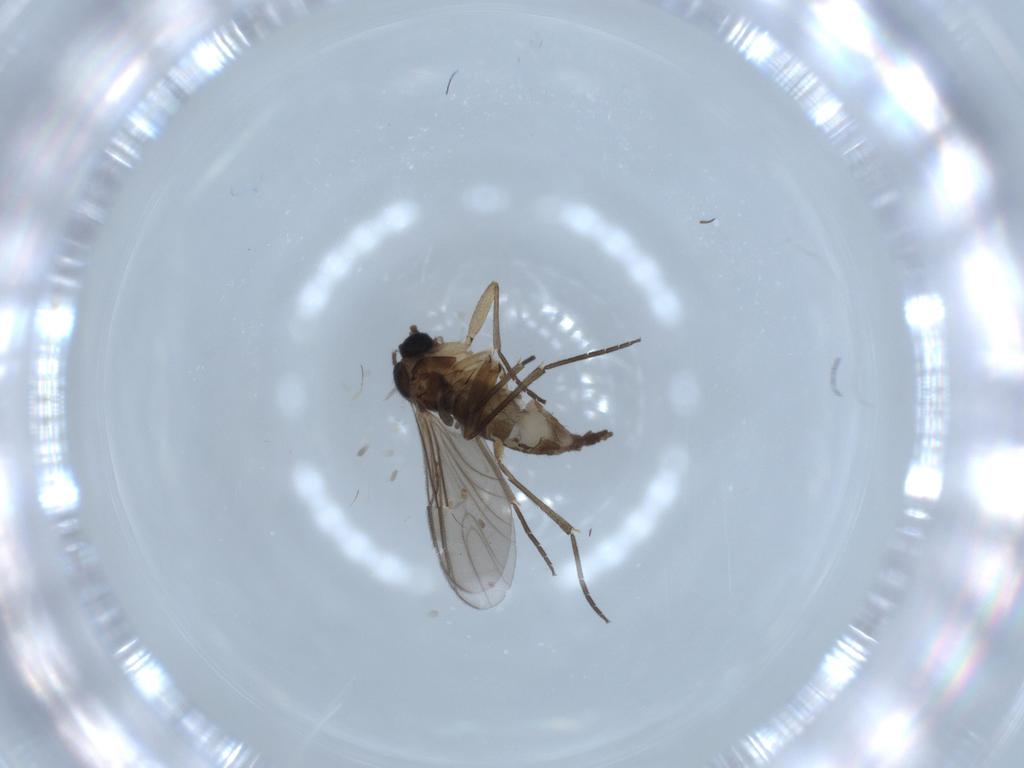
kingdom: Animalia
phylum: Arthropoda
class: Insecta
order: Diptera
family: Sciaridae
